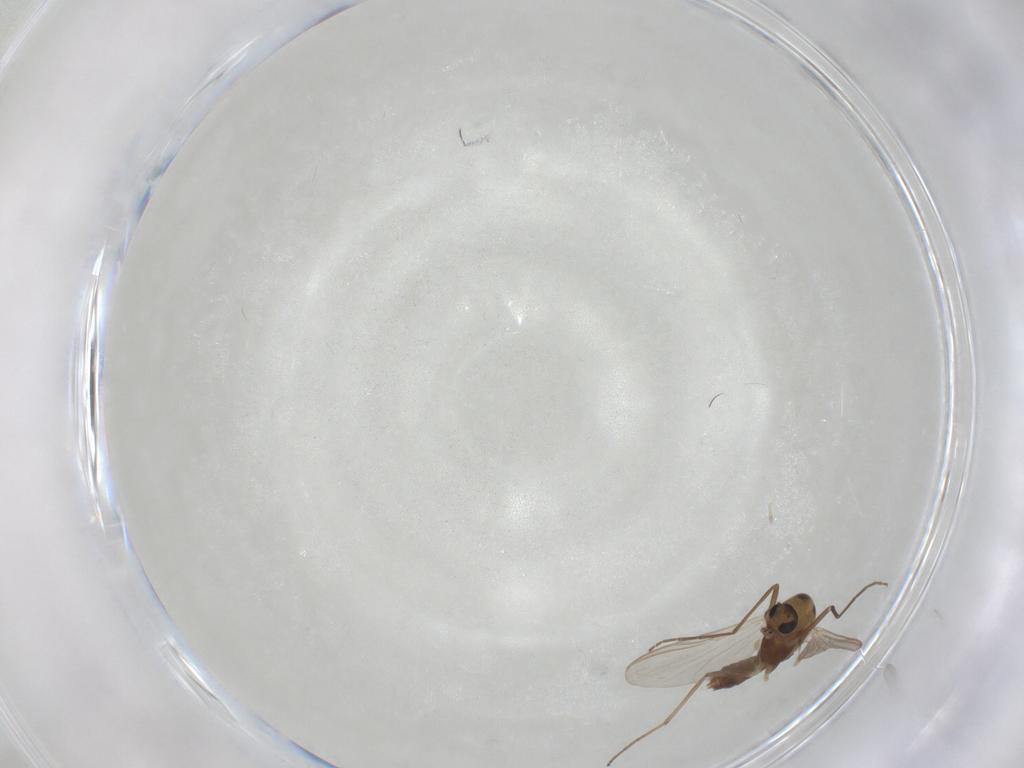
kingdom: Animalia
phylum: Arthropoda
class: Insecta
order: Diptera
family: Chironomidae
